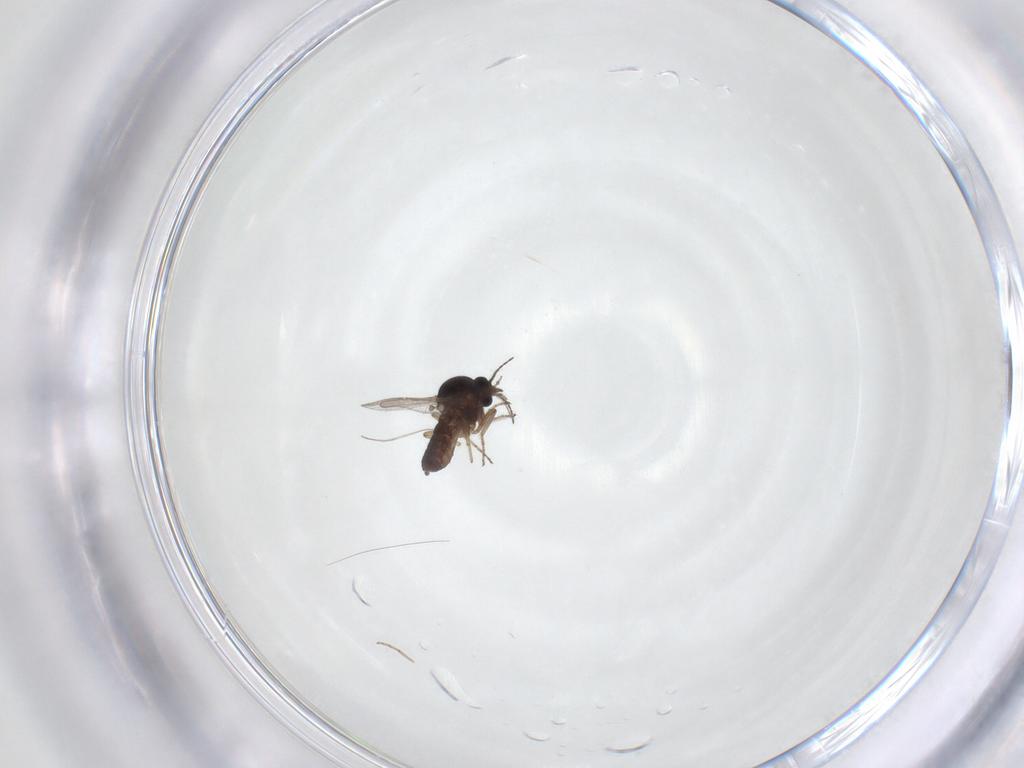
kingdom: Animalia
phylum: Arthropoda
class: Insecta
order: Diptera
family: Ceratopogonidae
